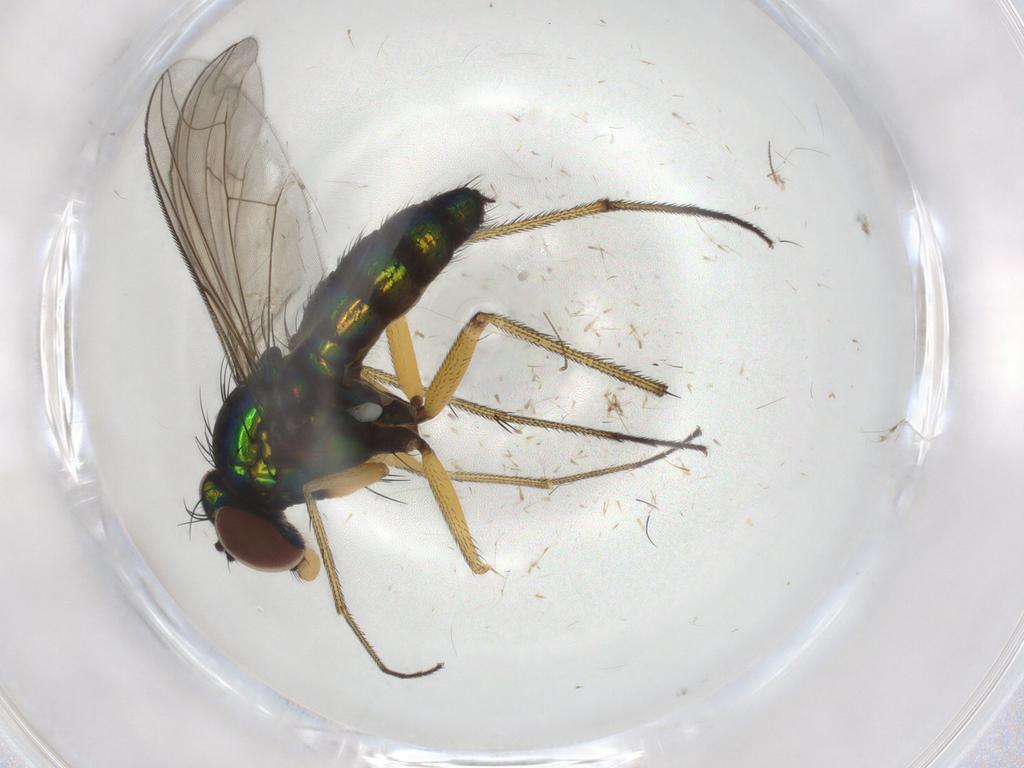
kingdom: Animalia
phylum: Arthropoda
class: Insecta
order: Diptera
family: Dolichopodidae
